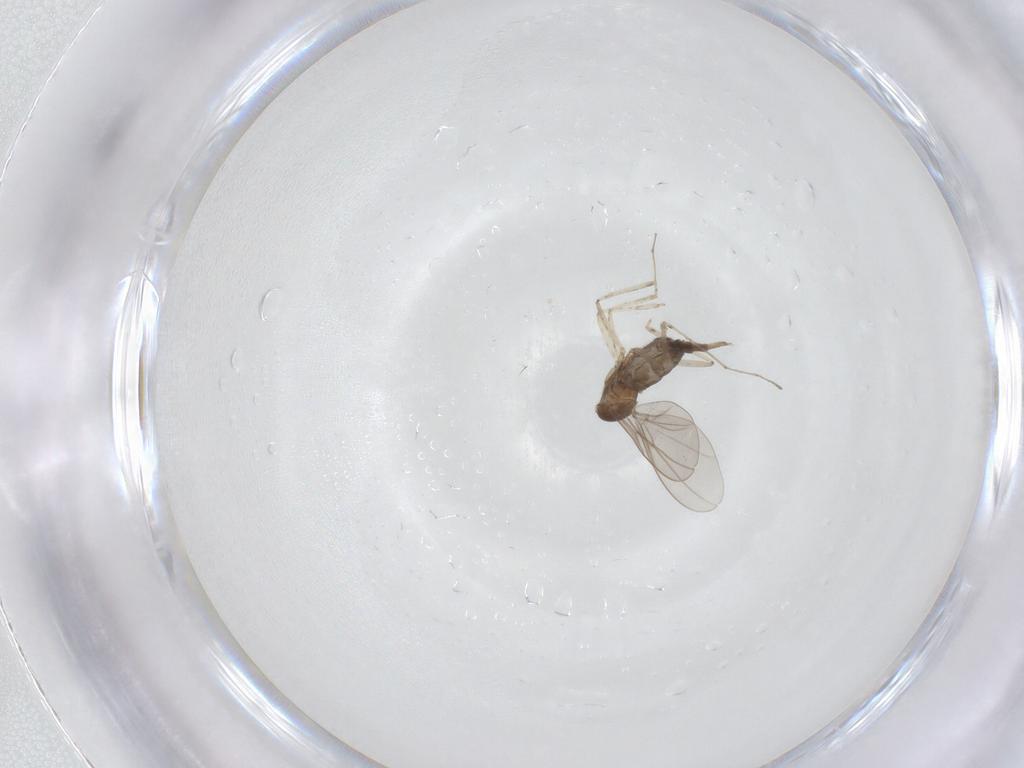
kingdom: Animalia
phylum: Arthropoda
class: Insecta
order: Diptera
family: Cecidomyiidae
